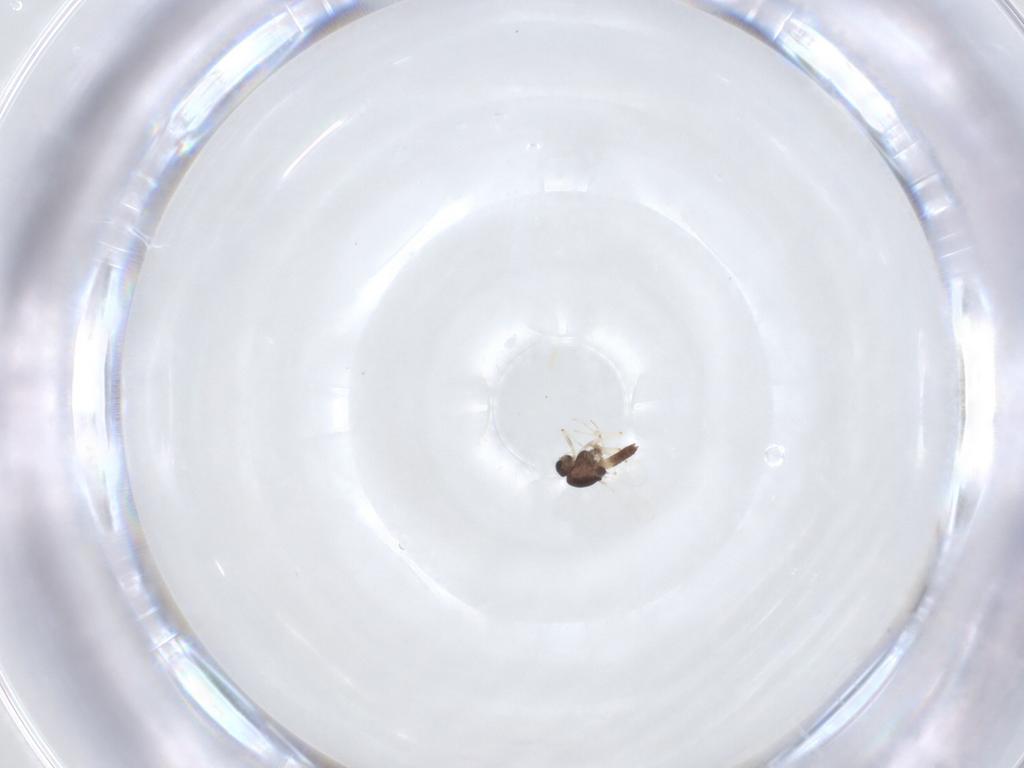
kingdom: Animalia
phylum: Arthropoda
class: Insecta
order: Diptera
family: Chironomidae
